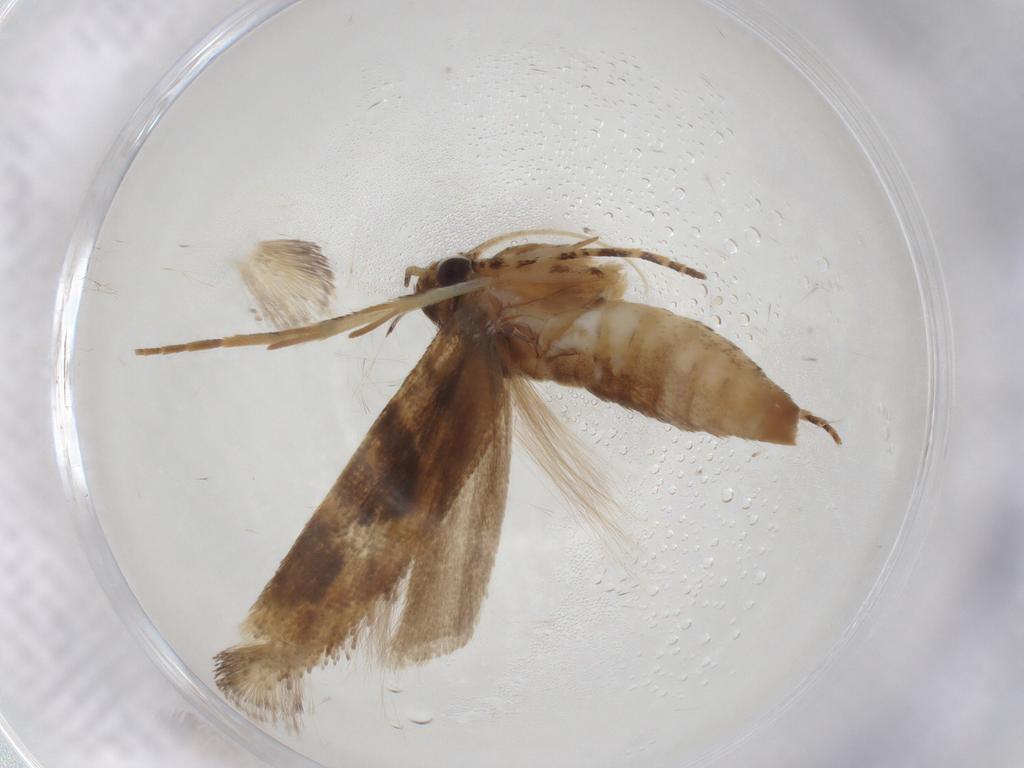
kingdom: Animalia
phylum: Arthropoda
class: Insecta
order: Lepidoptera
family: Gelechiidae
